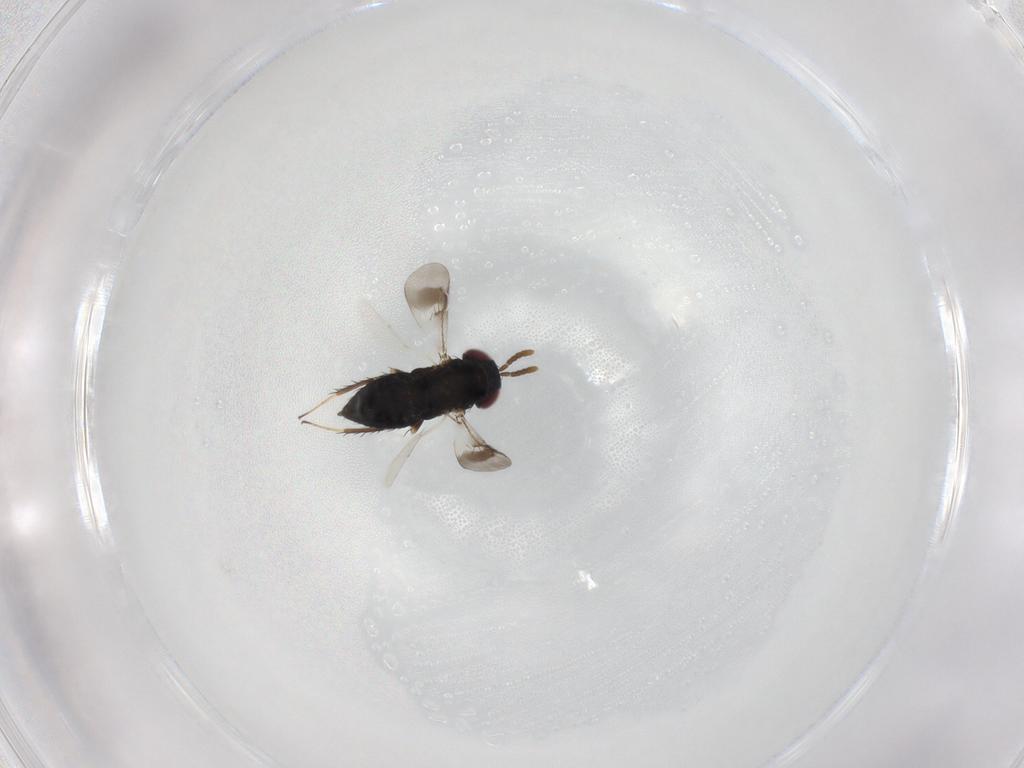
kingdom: Animalia
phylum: Arthropoda
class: Insecta
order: Hymenoptera
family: Pirenidae
